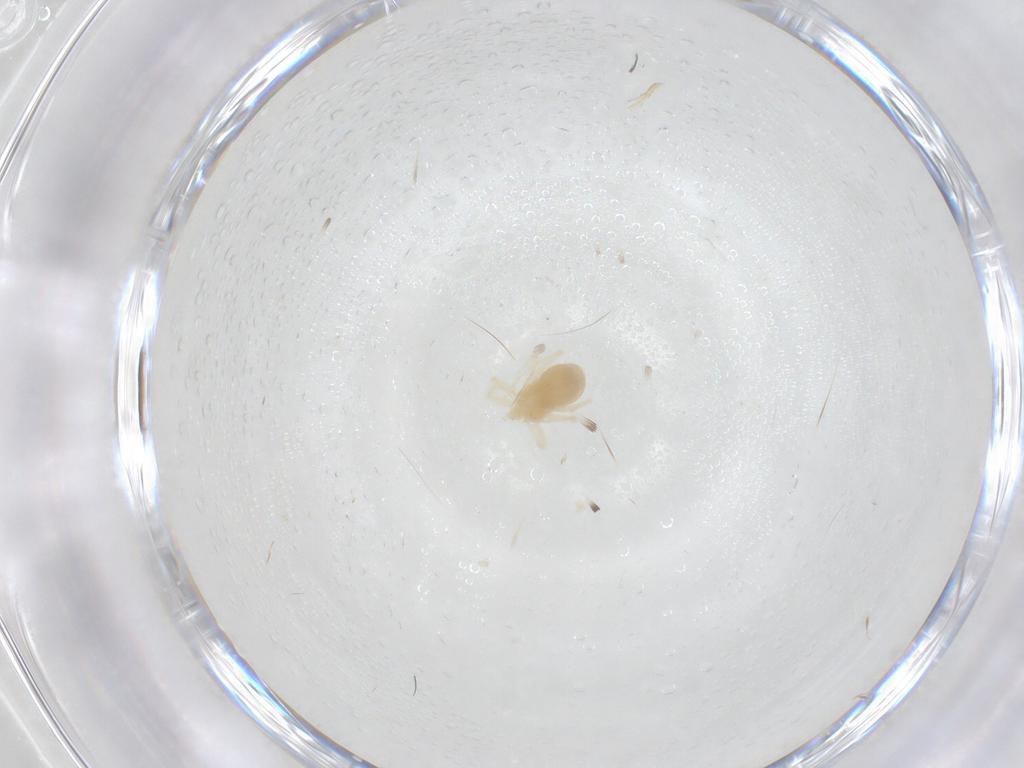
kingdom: Animalia
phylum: Arthropoda
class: Arachnida
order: Trombidiformes
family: Anystidae
